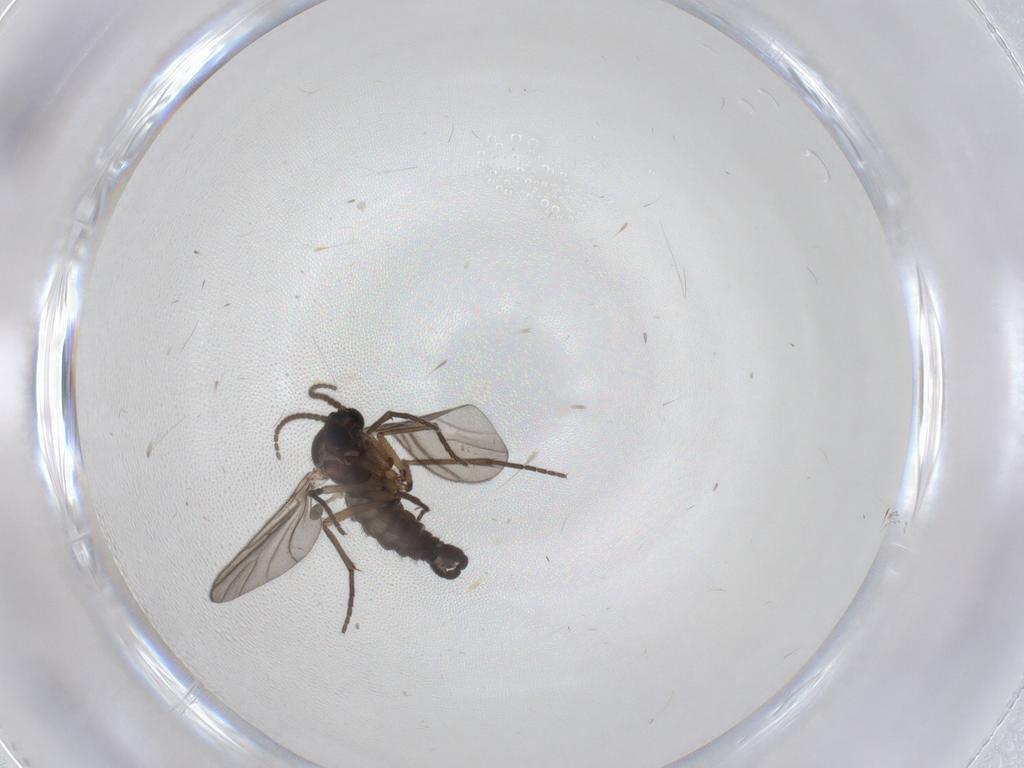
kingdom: Animalia
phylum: Arthropoda
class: Insecta
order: Diptera
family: Sciaridae
